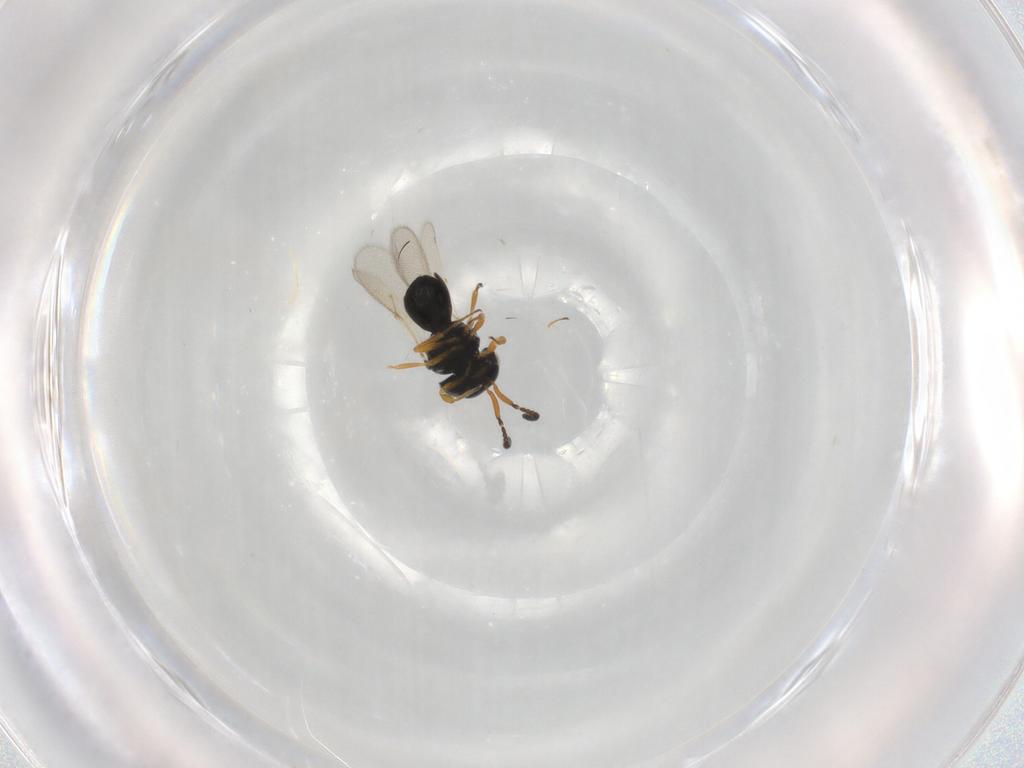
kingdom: Animalia
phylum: Arthropoda
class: Insecta
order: Hymenoptera
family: Scelionidae
